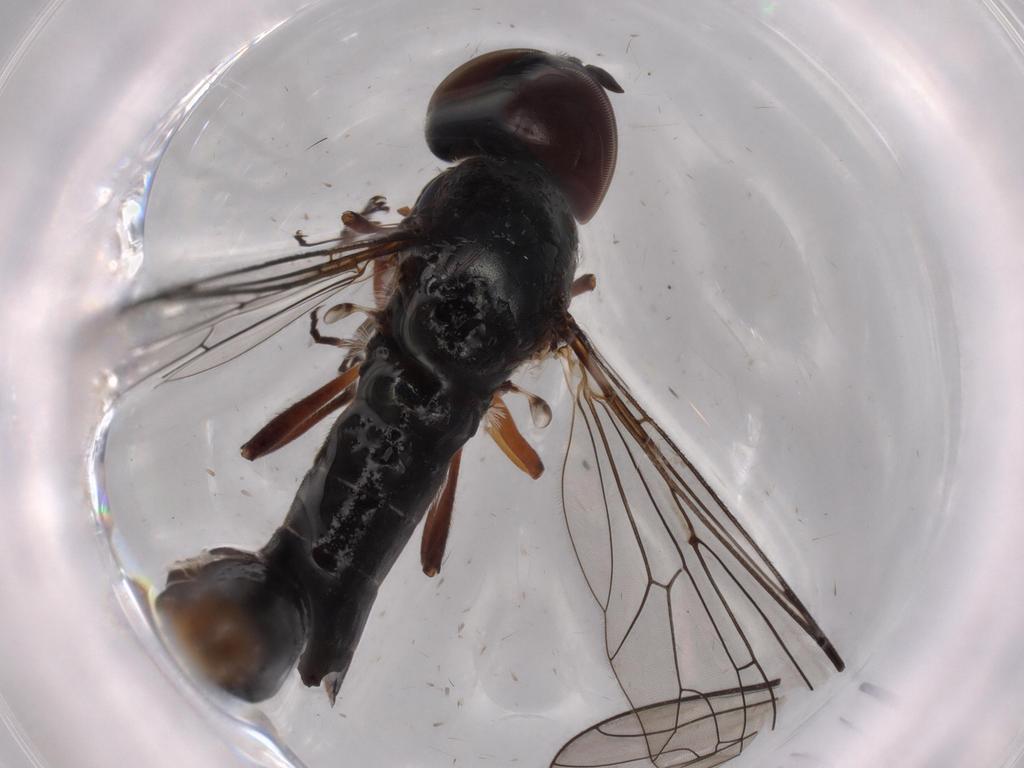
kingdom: Animalia
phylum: Arthropoda
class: Insecta
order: Diptera
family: Dolichopodidae
